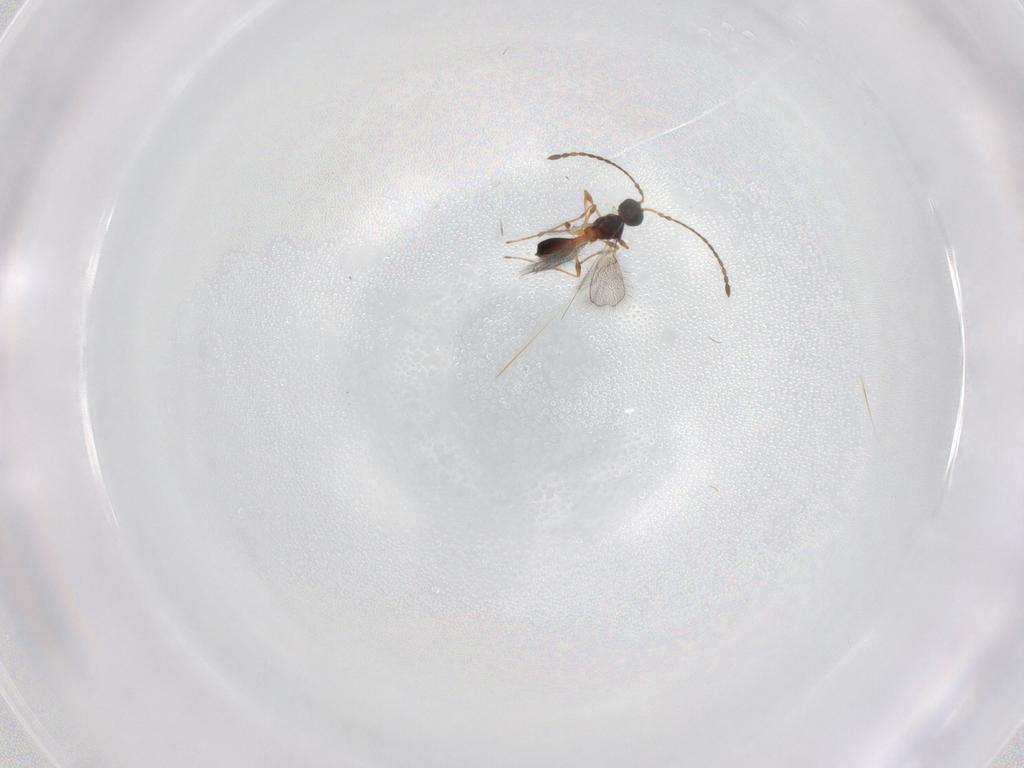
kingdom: Animalia
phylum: Arthropoda
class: Insecta
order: Hymenoptera
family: Diapriidae
